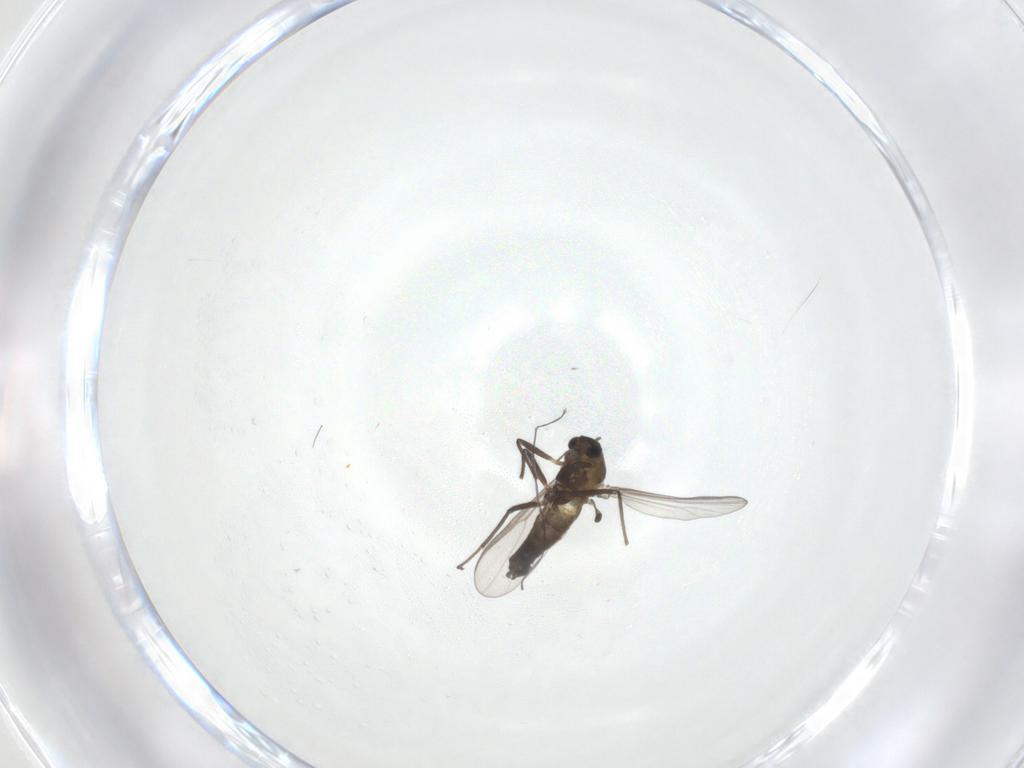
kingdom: Animalia
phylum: Arthropoda
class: Insecta
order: Diptera
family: Chironomidae
